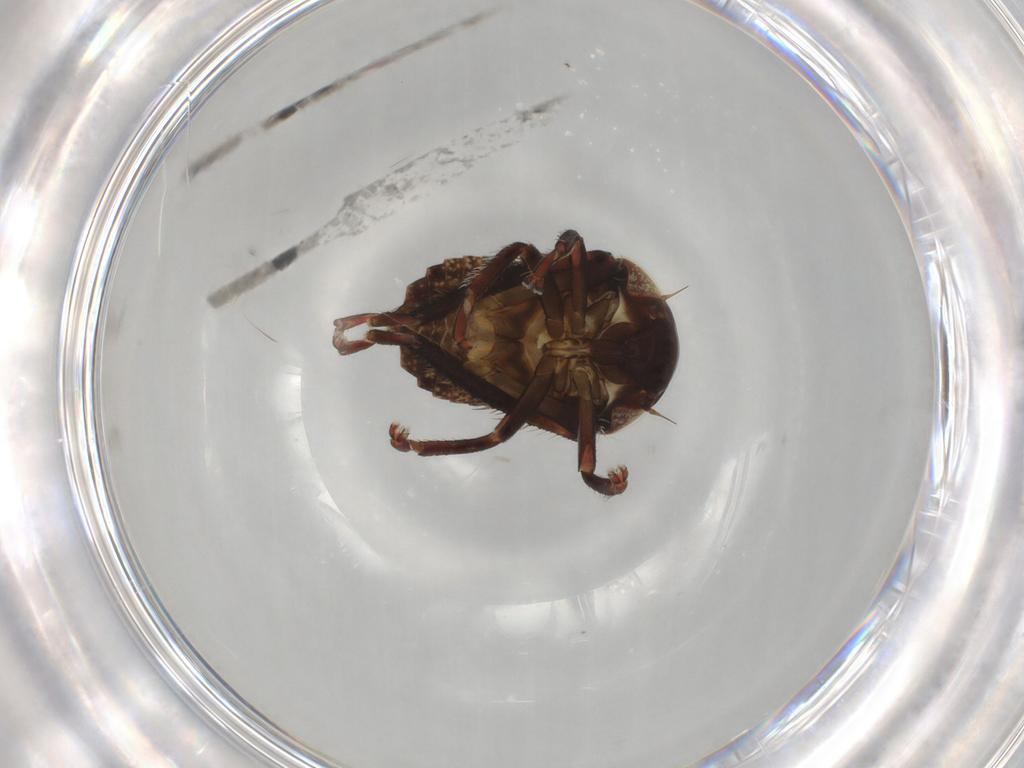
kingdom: Animalia
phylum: Arthropoda
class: Insecta
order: Hemiptera
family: Cicadellidae
